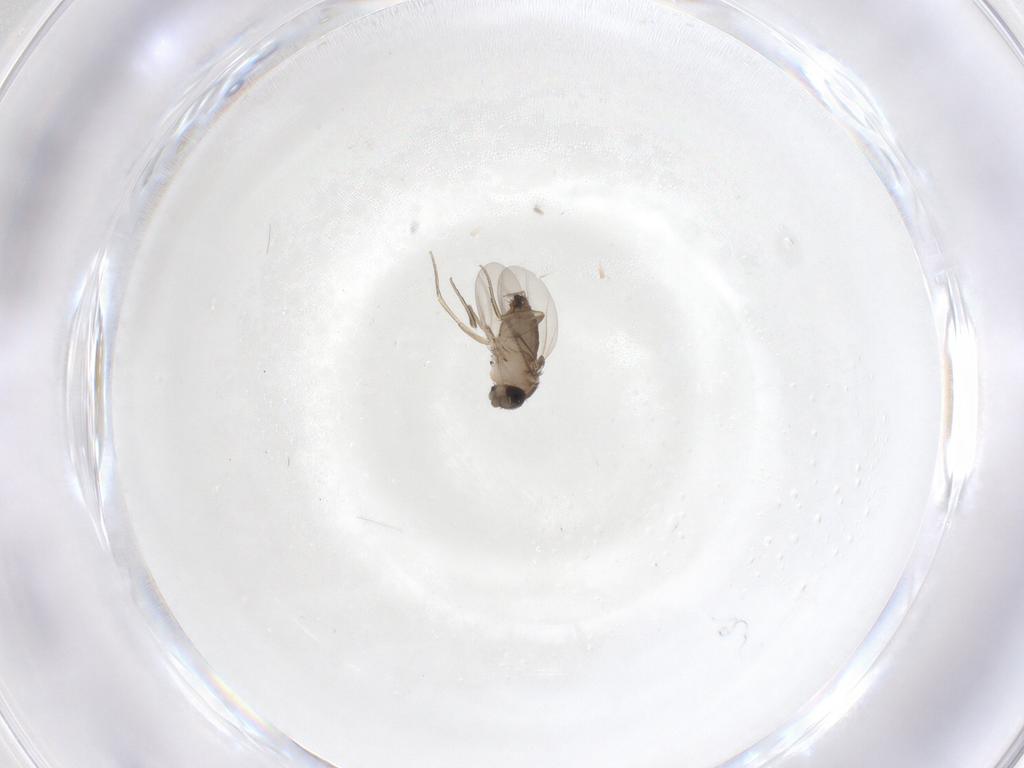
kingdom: Animalia
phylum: Arthropoda
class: Insecta
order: Diptera
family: Phoridae
